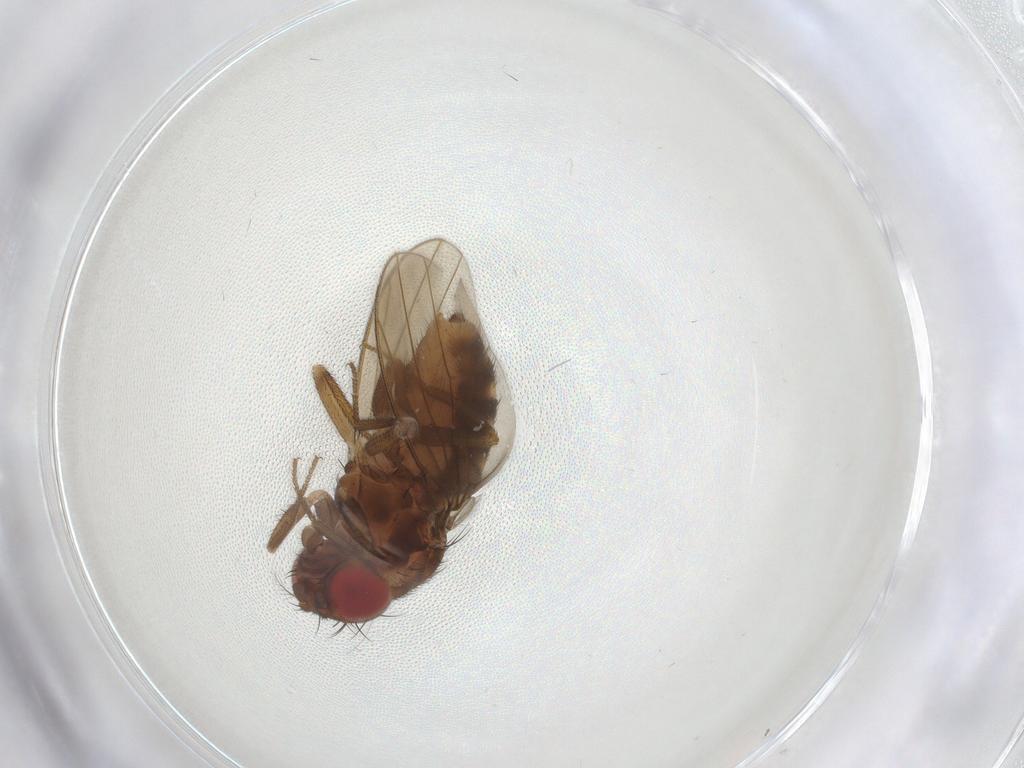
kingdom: Animalia
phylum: Arthropoda
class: Insecta
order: Diptera
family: Drosophilidae
